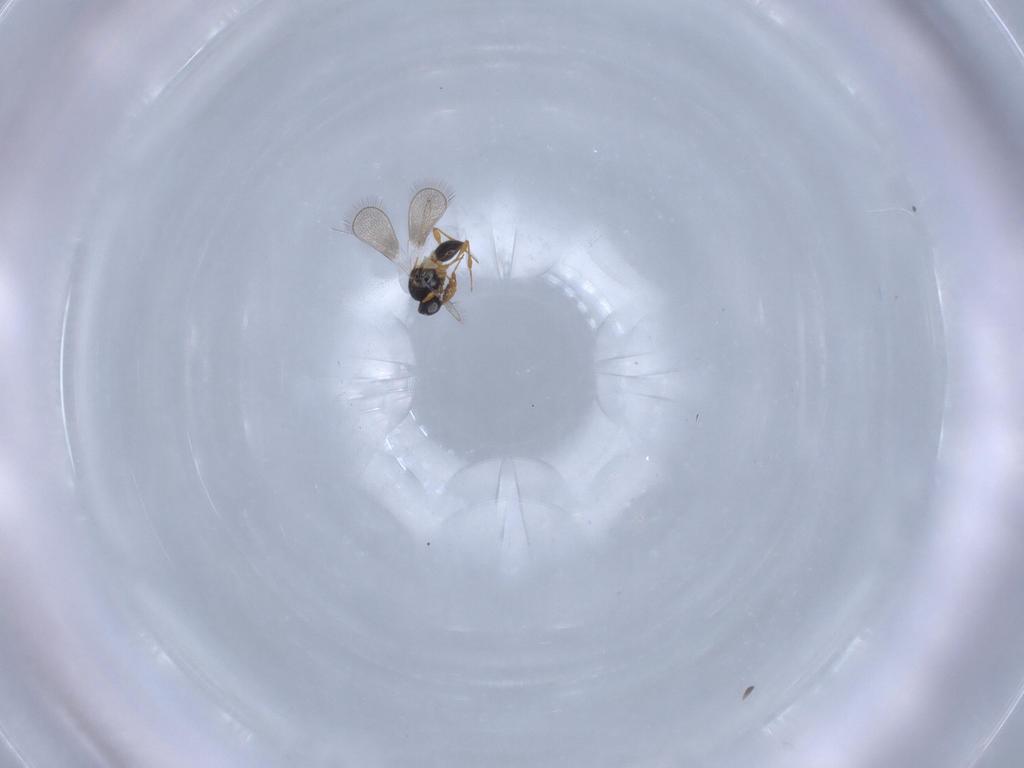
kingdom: Animalia
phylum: Arthropoda
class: Insecta
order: Hymenoptera
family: Platygastridae
